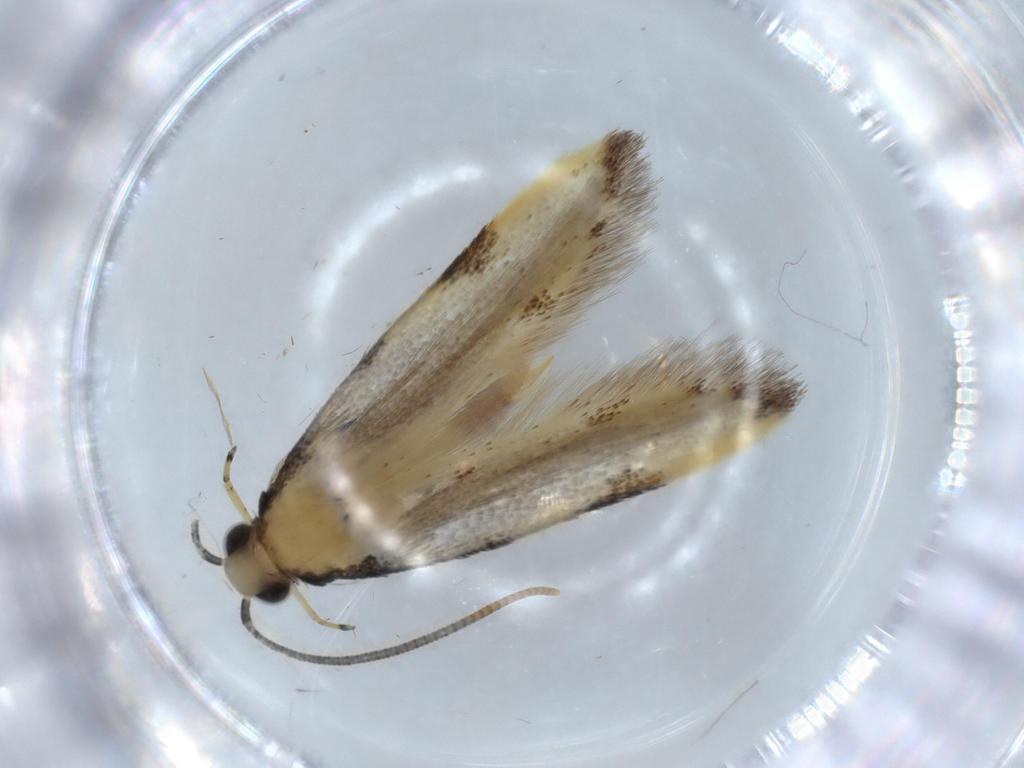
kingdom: Animalia
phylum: Arthropoda
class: Insecta
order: Lepidoptera
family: Autostichidae
